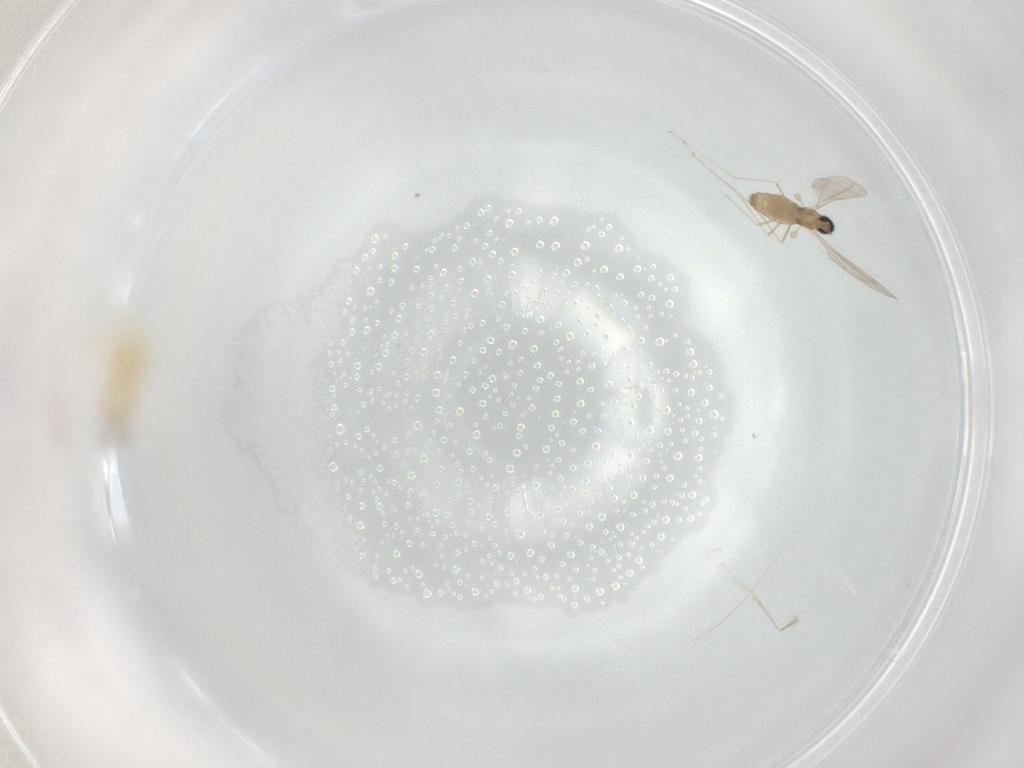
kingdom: Animalia
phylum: Arthropoda
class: Insecta
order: Diptera
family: Cecidomyiidae
